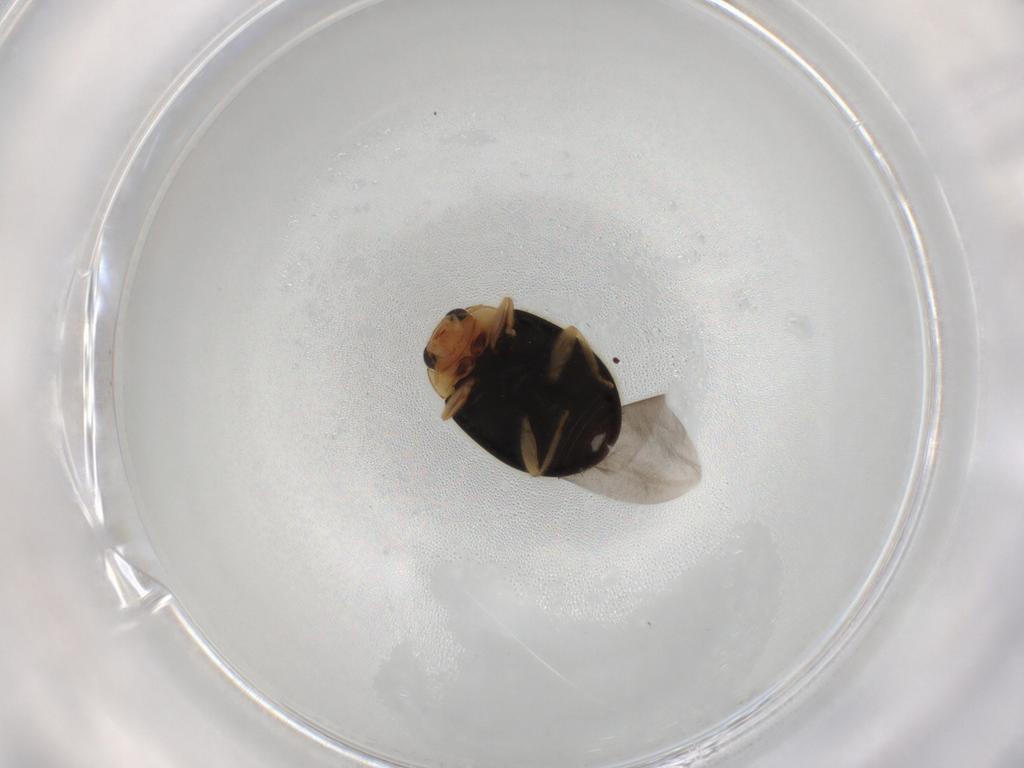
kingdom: Animalia
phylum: Arthropoda
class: Insecta
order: Coleoptera
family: Coccinellidae
